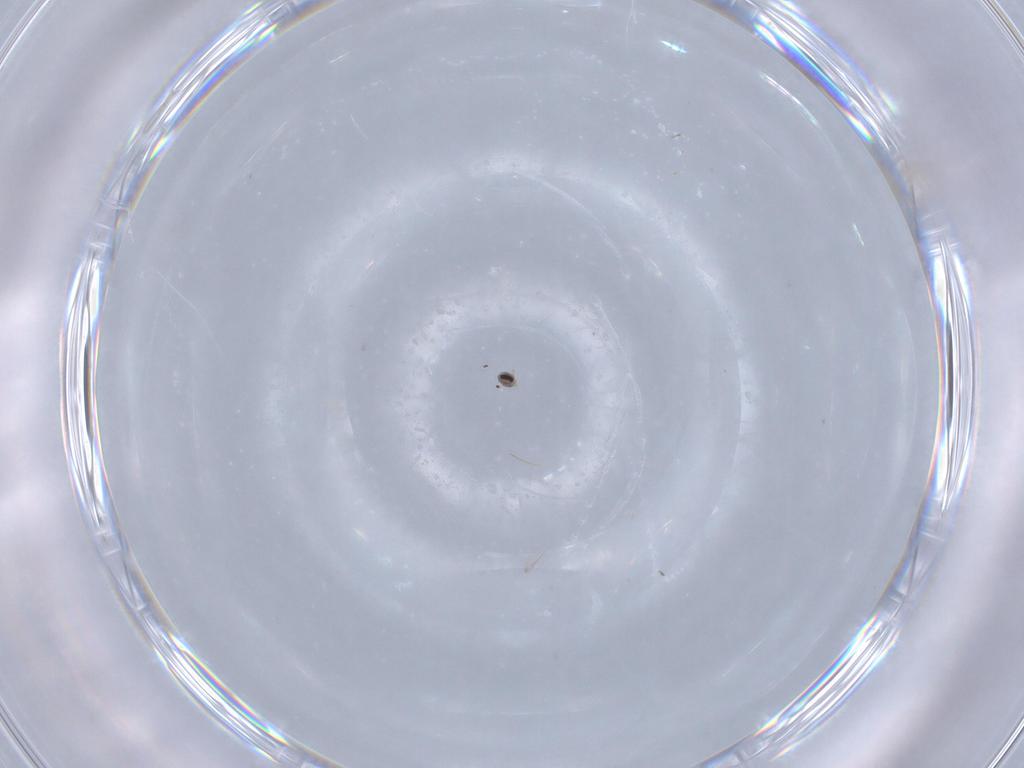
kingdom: Animalia
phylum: Arthropoda
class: Insecta
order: Diptera
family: Cecidomyiidae
